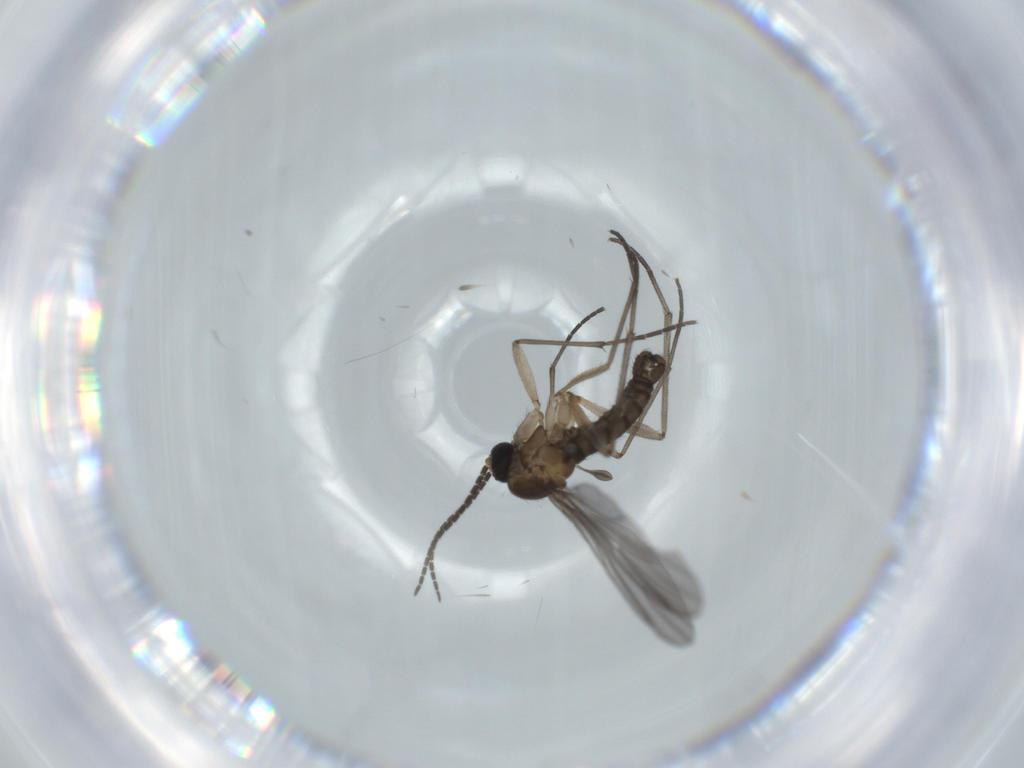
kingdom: Animalia
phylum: Arthropoda
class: Insecta
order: Diptera
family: Sciaridae
